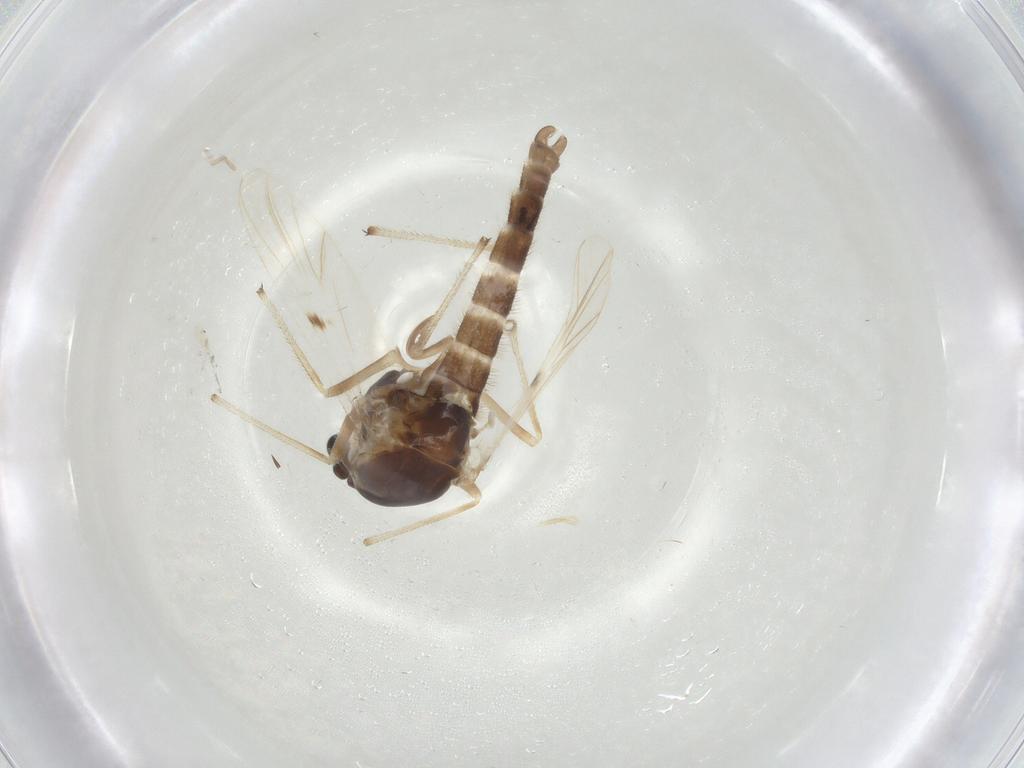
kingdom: Animalia
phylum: Arthropoda
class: Insecta
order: Diptera
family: Chironomidae
